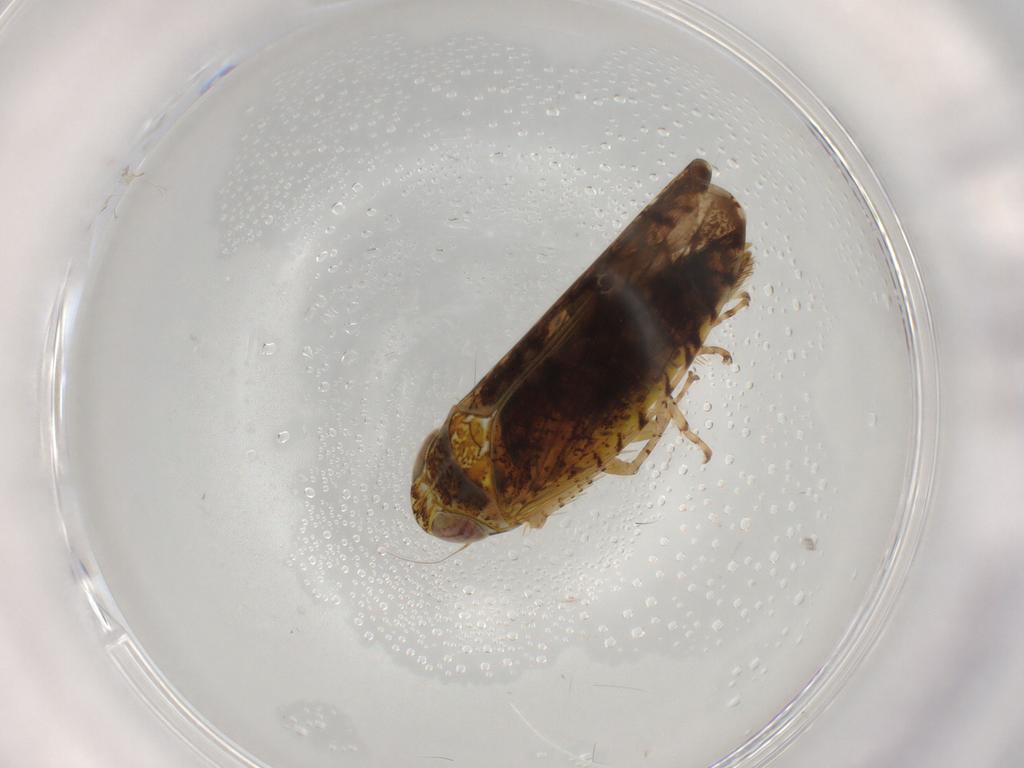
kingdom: Animalia
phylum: Arthropoda
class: Insecta
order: Hemiptera
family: Cicadellidae
